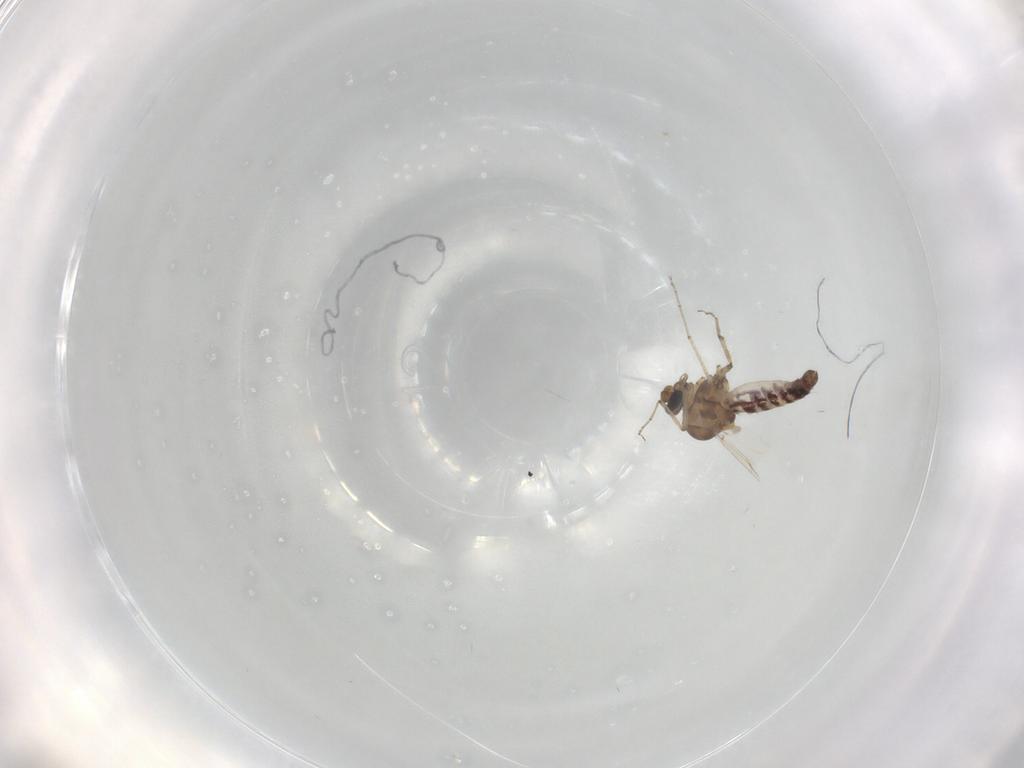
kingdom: Animalia
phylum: Arthropoda
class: Insecta
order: Diptera
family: Ceratopogonidae
